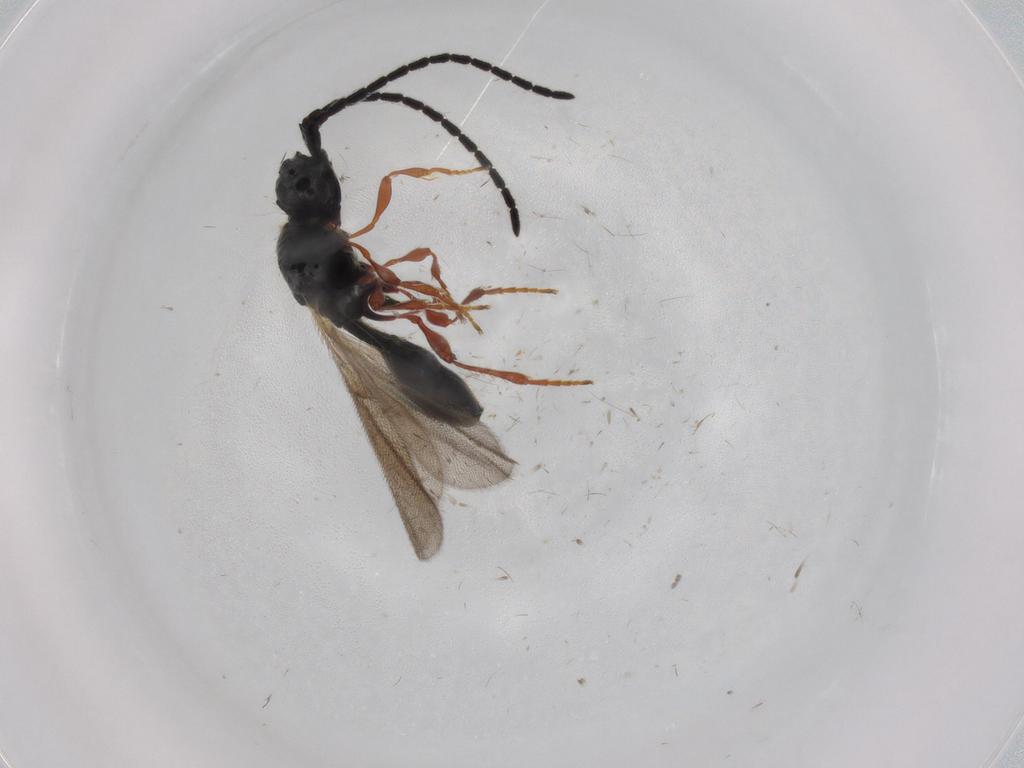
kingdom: Animalia
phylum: Arthropoda
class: Insecta
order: Hymenoptera
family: Diapriidae
